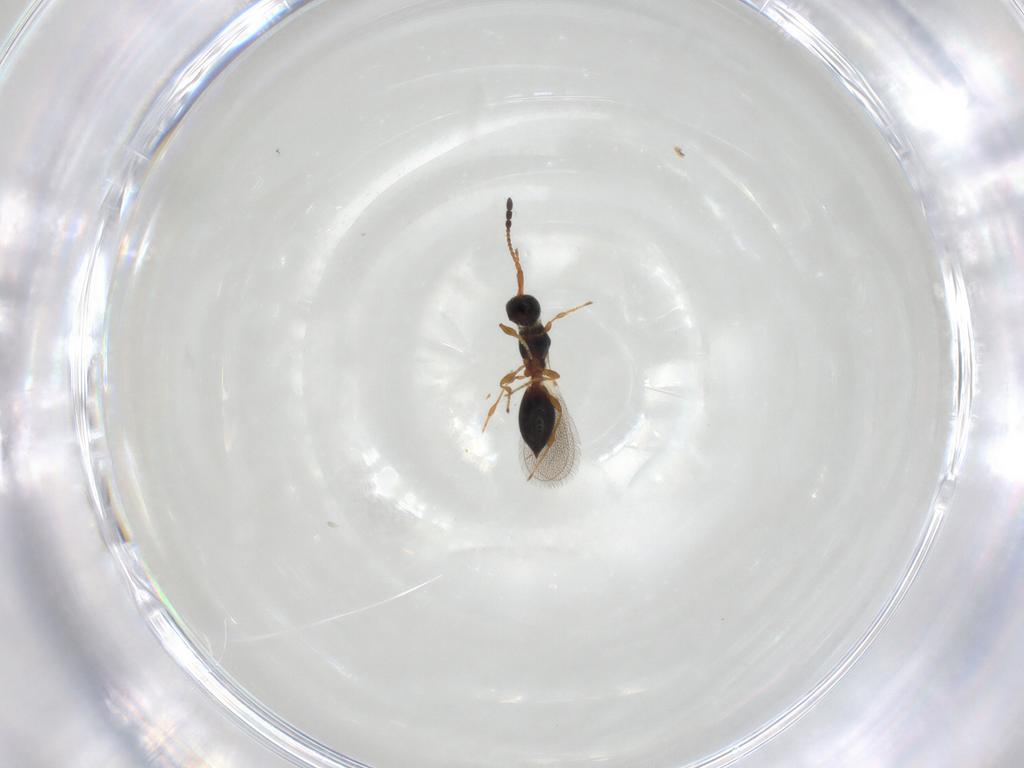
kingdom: Animalia
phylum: Arthropoda
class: Insecta
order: Hymenoptera
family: Diapriidae
